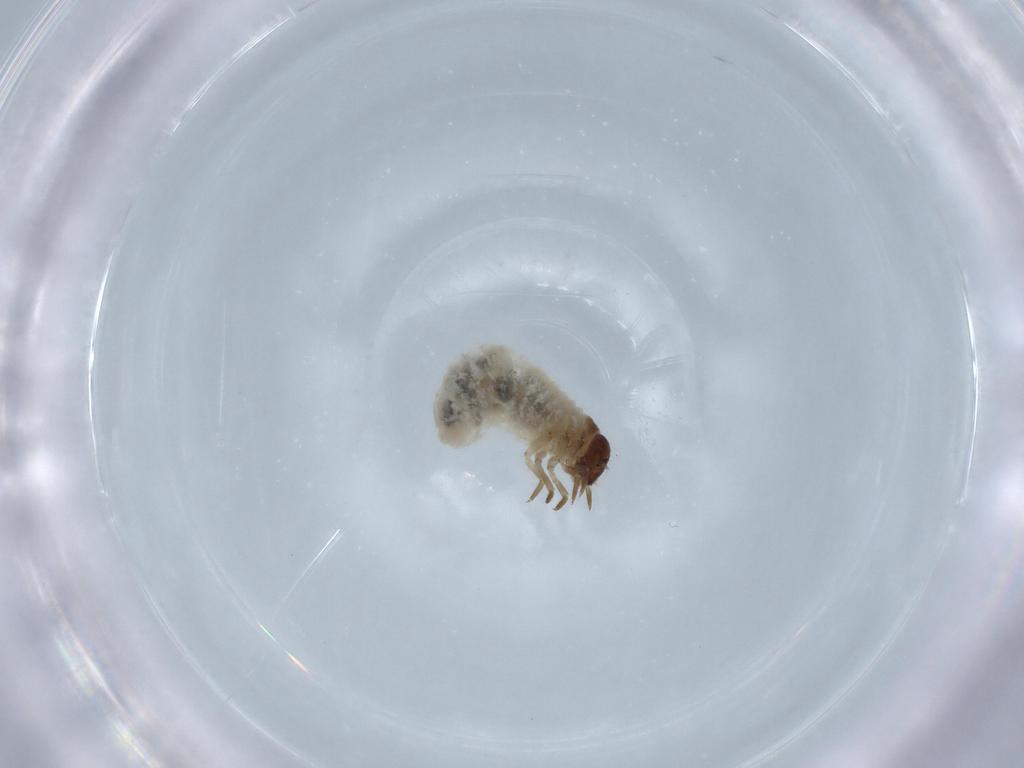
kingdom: Animalia
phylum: Arthropoda
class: Insecta
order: Coleoptera
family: Chrysomelidae
